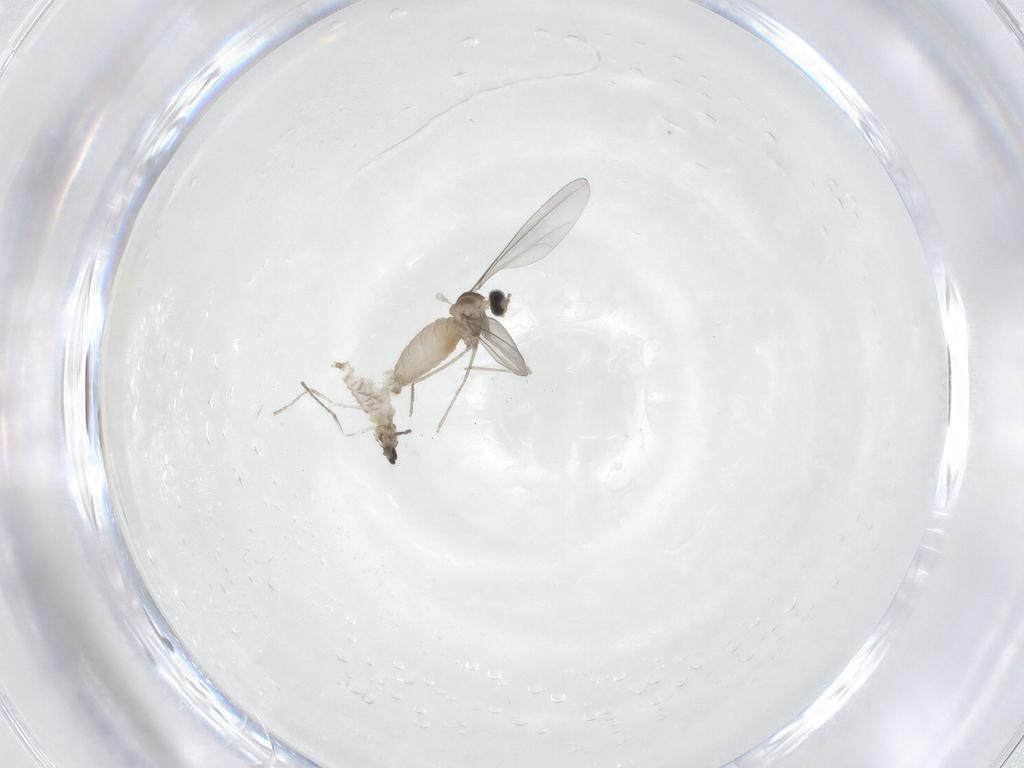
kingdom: Animalia
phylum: Arthropoda
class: Insecta
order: Diptera
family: Cecidomyiidae
